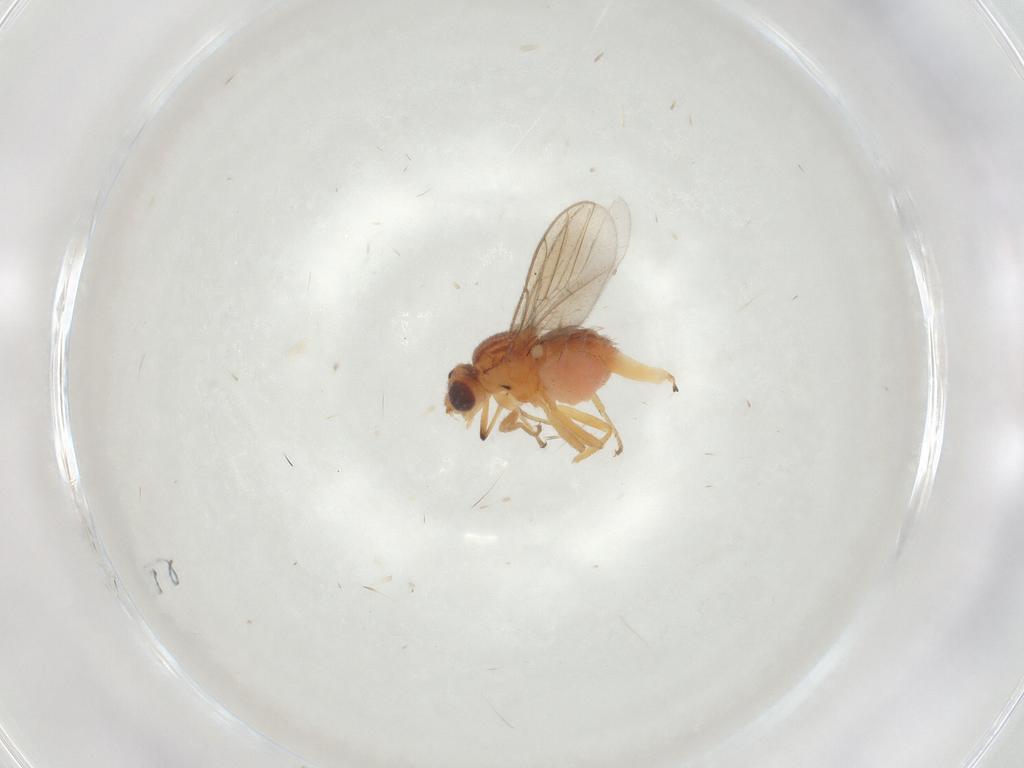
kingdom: Animalia
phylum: Arthropoda
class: Insecta
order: Diptera
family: Chloropidae
